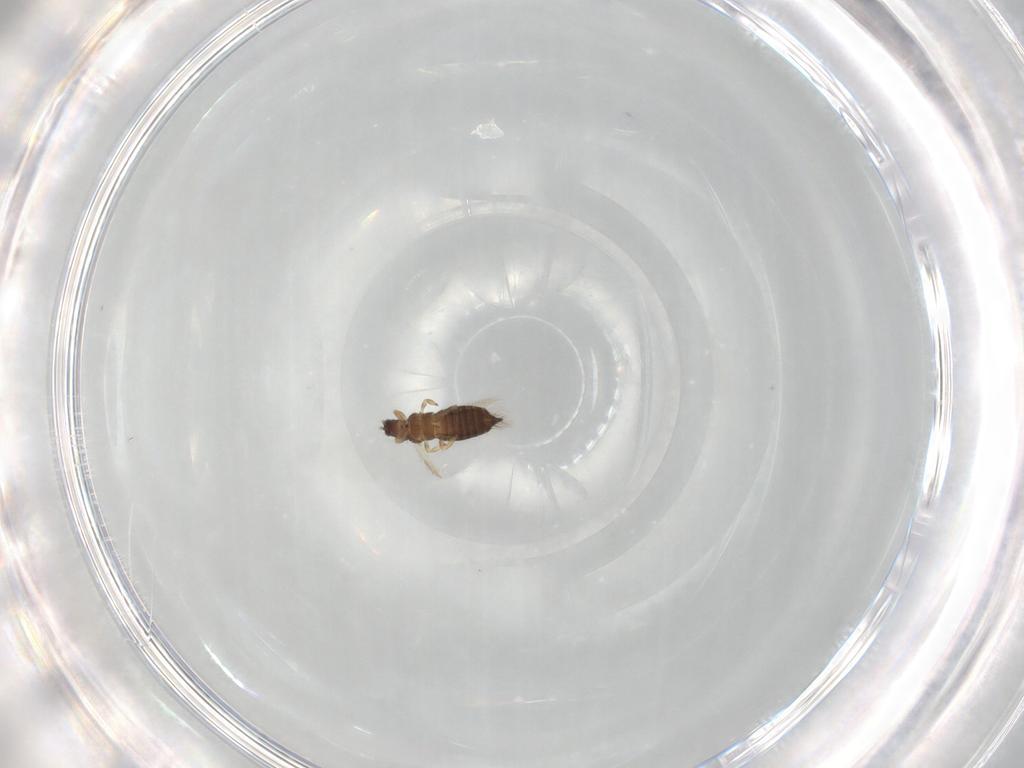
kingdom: Animalia
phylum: Arthropoda
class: Insecta
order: Thysanoptera
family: Thripidae
